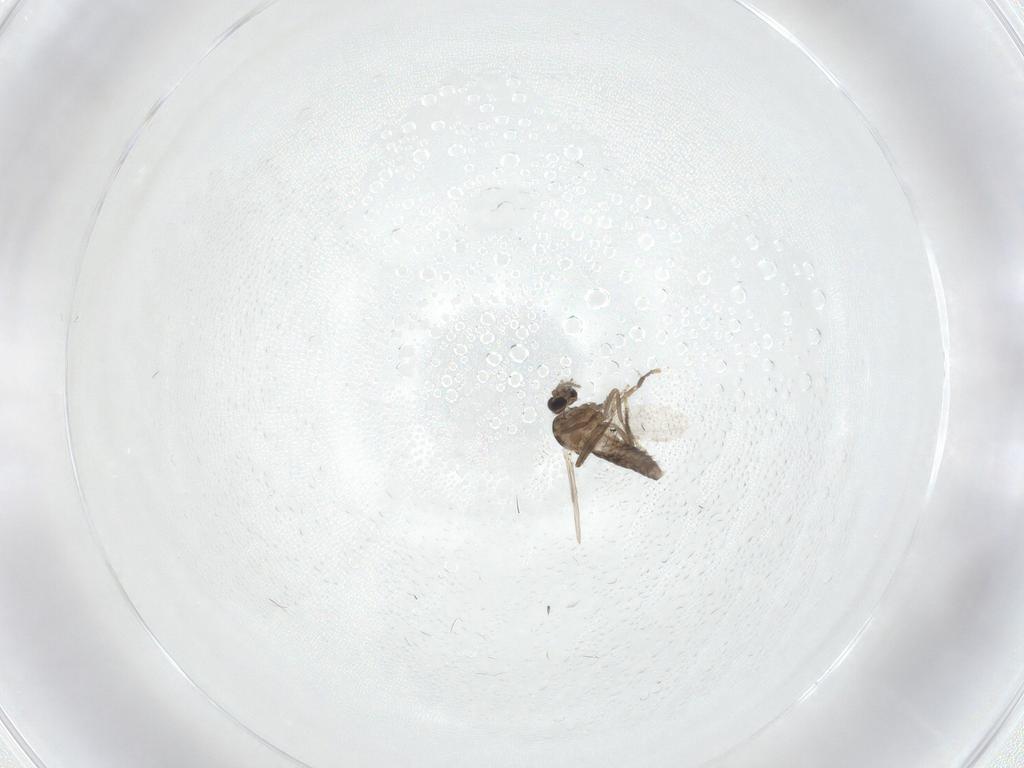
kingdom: Animalia
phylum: Arthropoda
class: Insecta
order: Diptera
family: Ceratopogonidae
